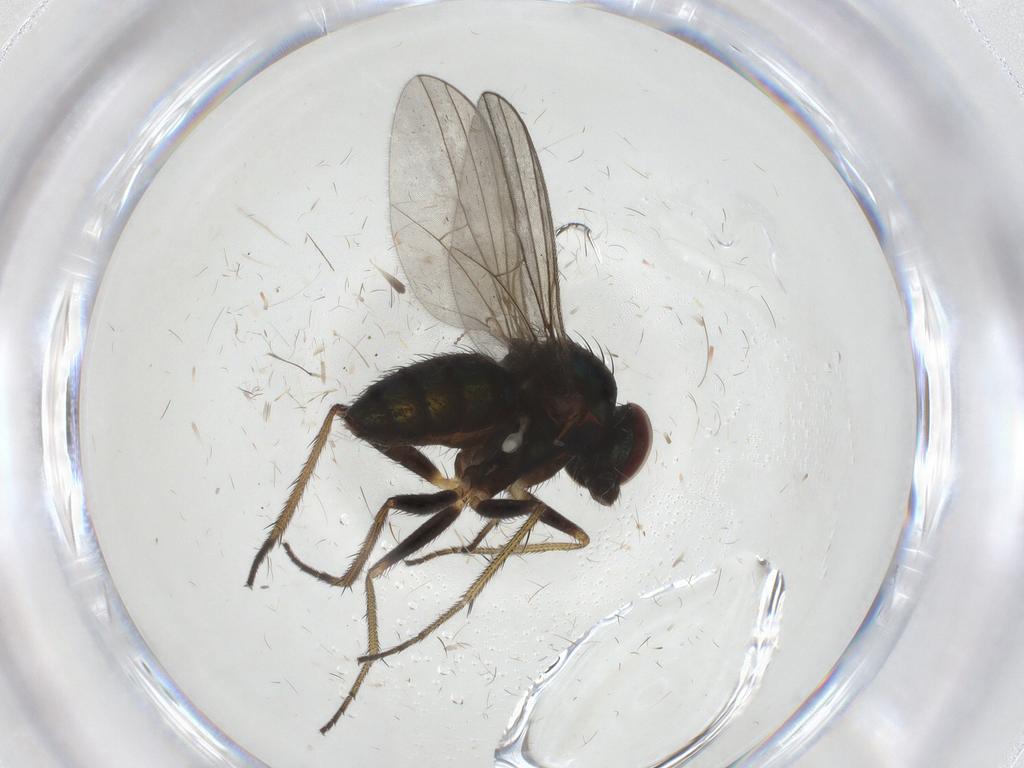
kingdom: Animalia
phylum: Arthropoda
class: Insecta
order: Diptera
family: Dolichopodidae
